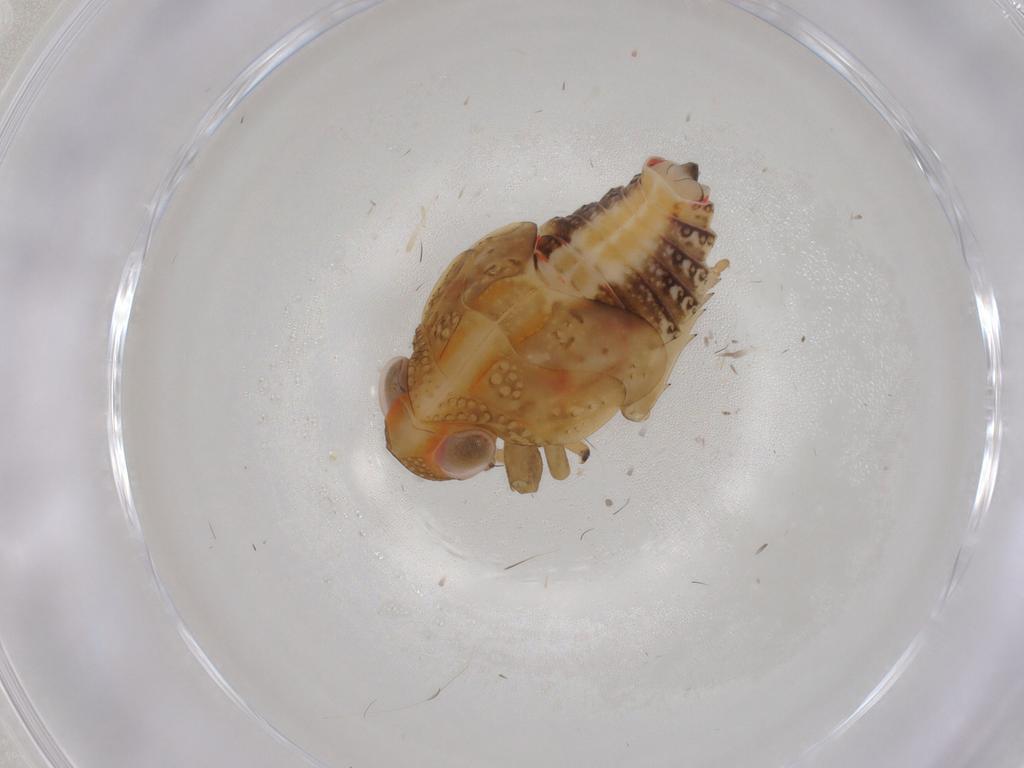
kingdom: Animalia
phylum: Arthropoda
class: Insecta
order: Hemiptera
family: Issidae
